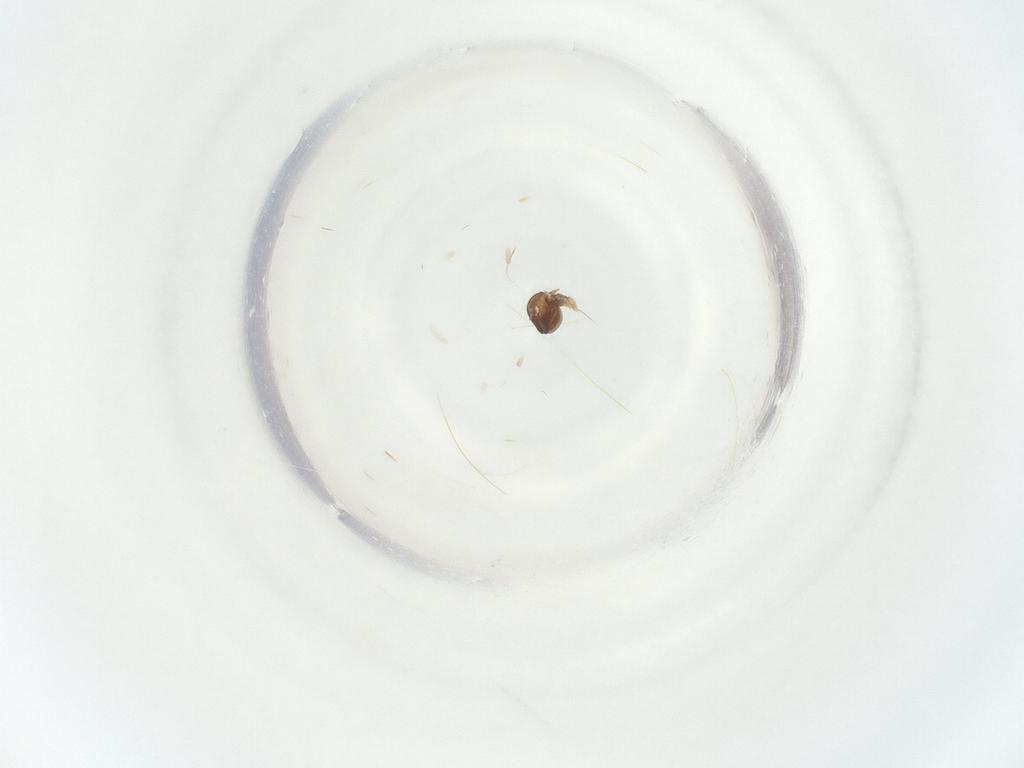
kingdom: Animalia
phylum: Arthropoda
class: Insecta
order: Diptera
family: Phoridae
